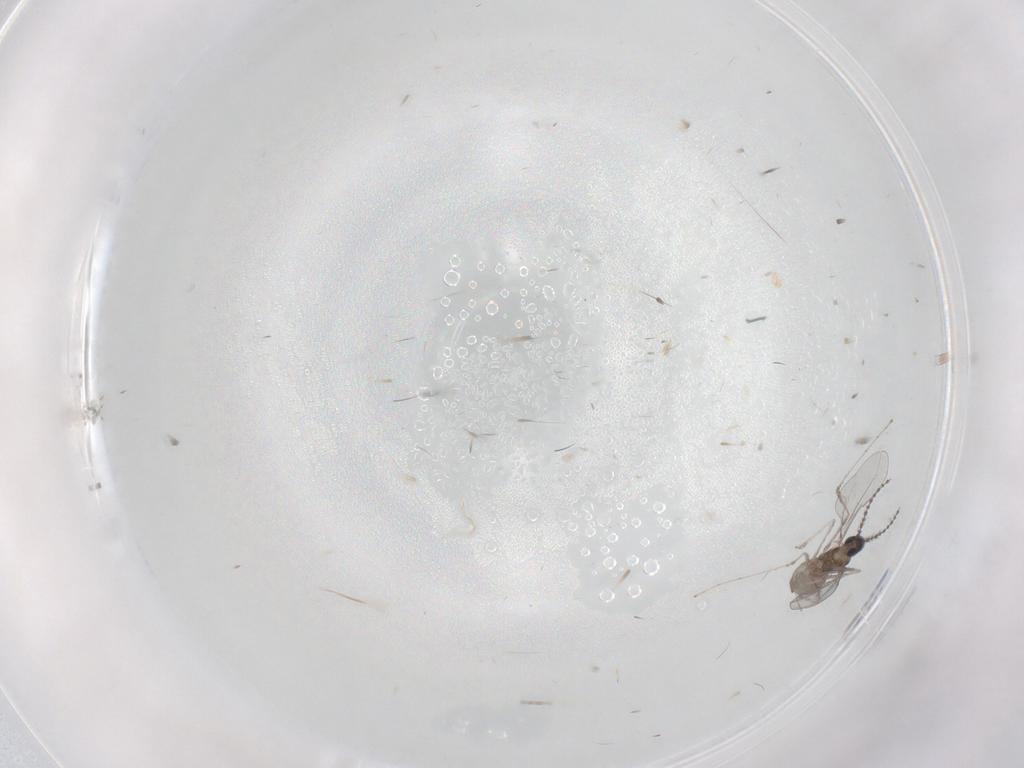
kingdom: Animalia
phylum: Arthropoda
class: Insecta
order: Diptera
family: Cecidomyiidae
